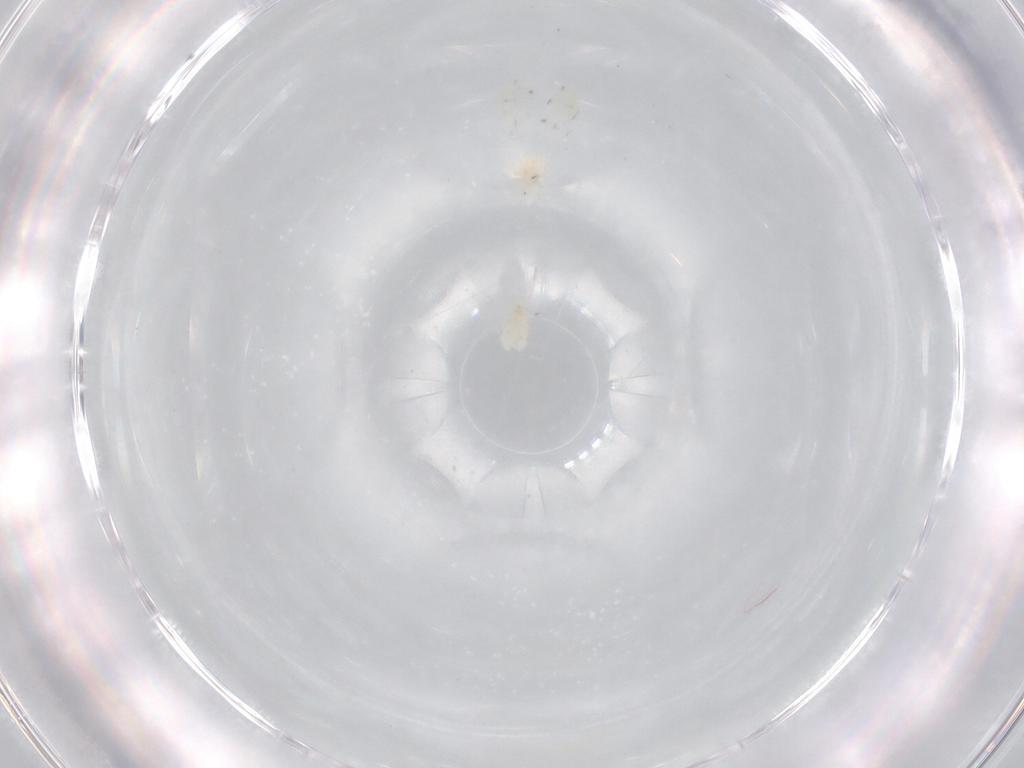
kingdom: Animalia
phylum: Arthropoda
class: Insecta
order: Hemiptera
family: Aleyrodidae
